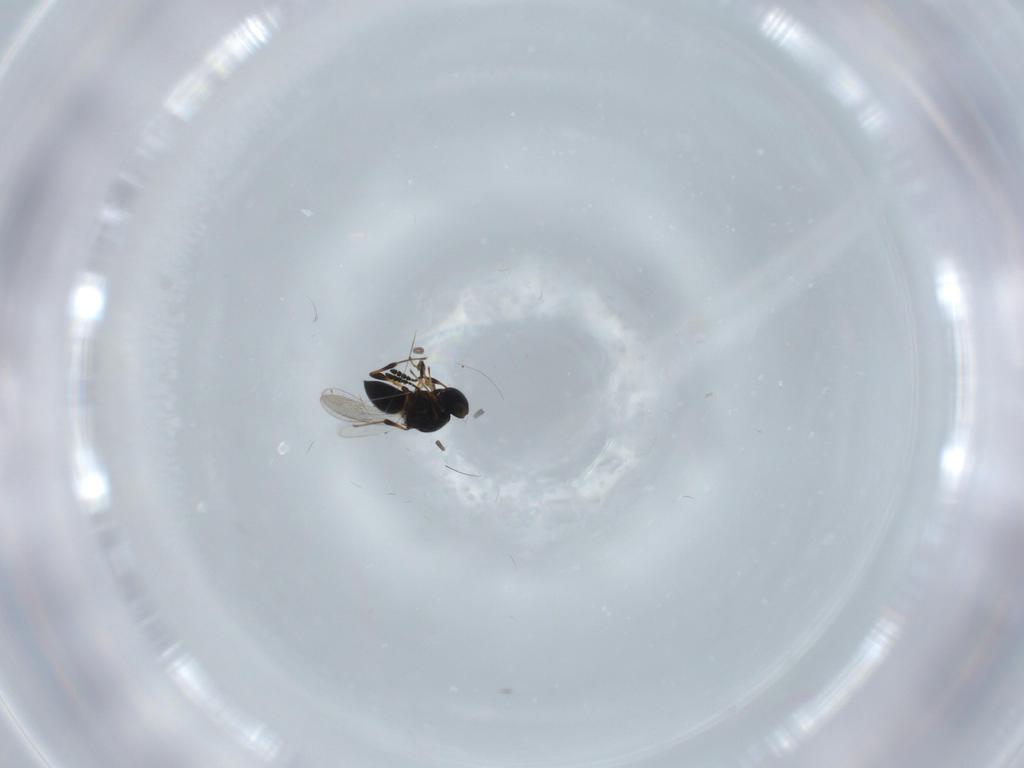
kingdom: Animalia
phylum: Arthropoda
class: Insecta
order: Hymenoptera
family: Platygastridae
